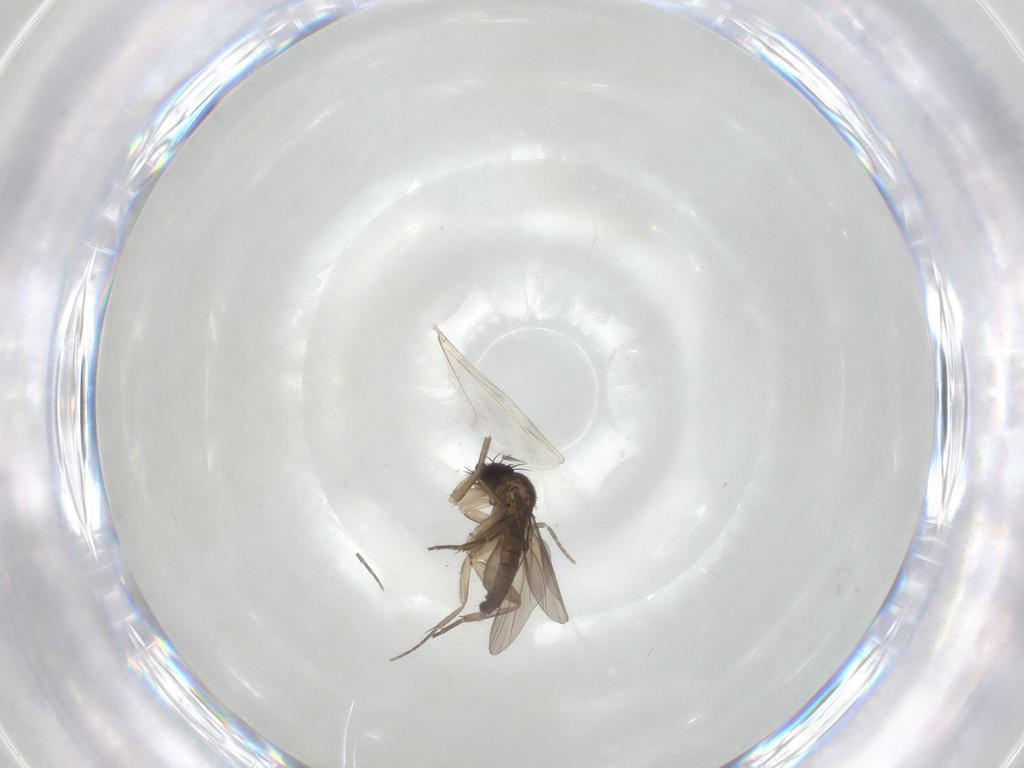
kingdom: Animalia
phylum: Arthropoda
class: Insecta
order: Diptera
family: Phoridae
